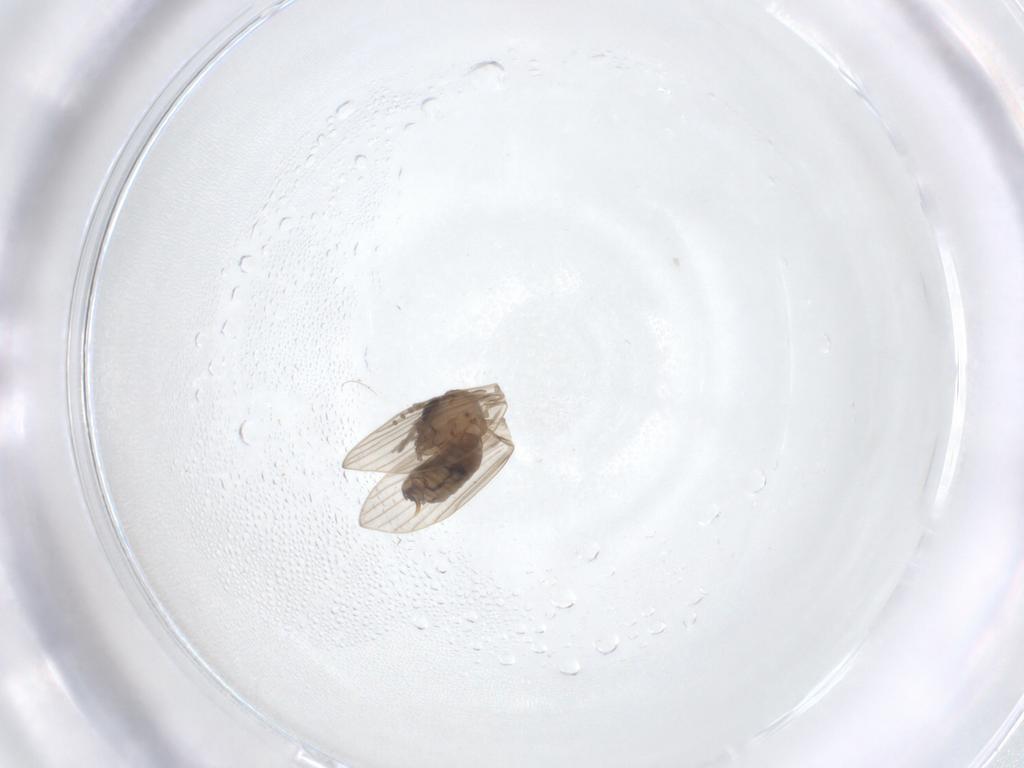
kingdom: Animalia
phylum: Arthropoda
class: Insecta
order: Diptera
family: Psychodidae
